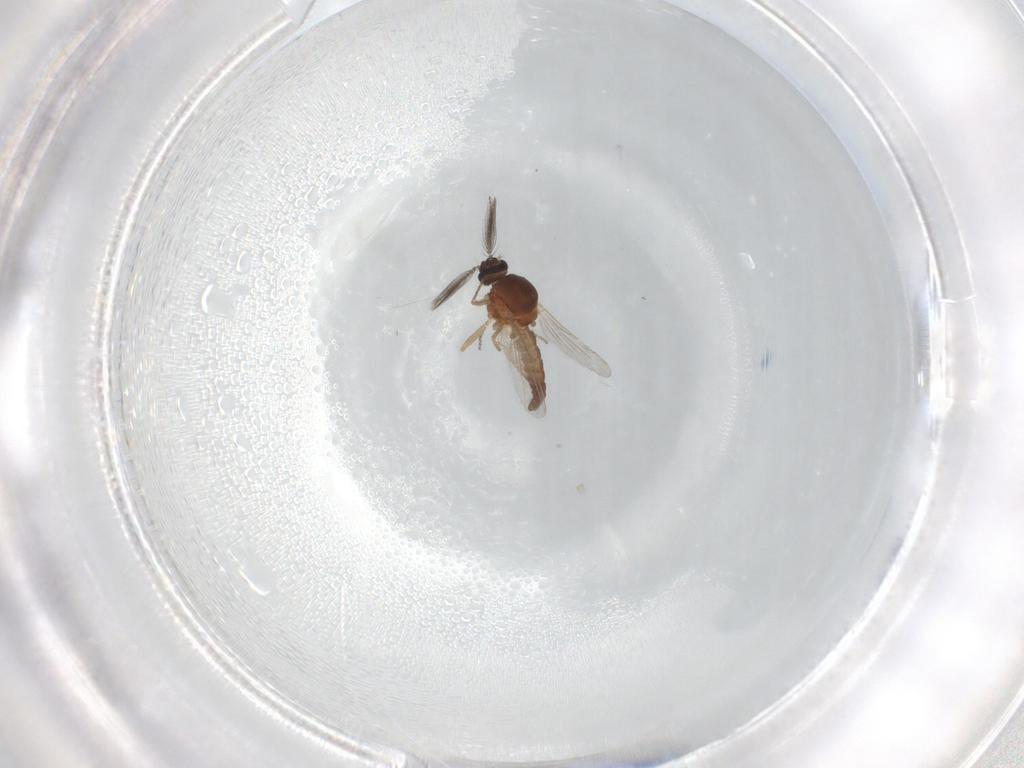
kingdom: Animalia
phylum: Arthropoda
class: Insecta
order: Diptera
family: Ceratopogonidae
